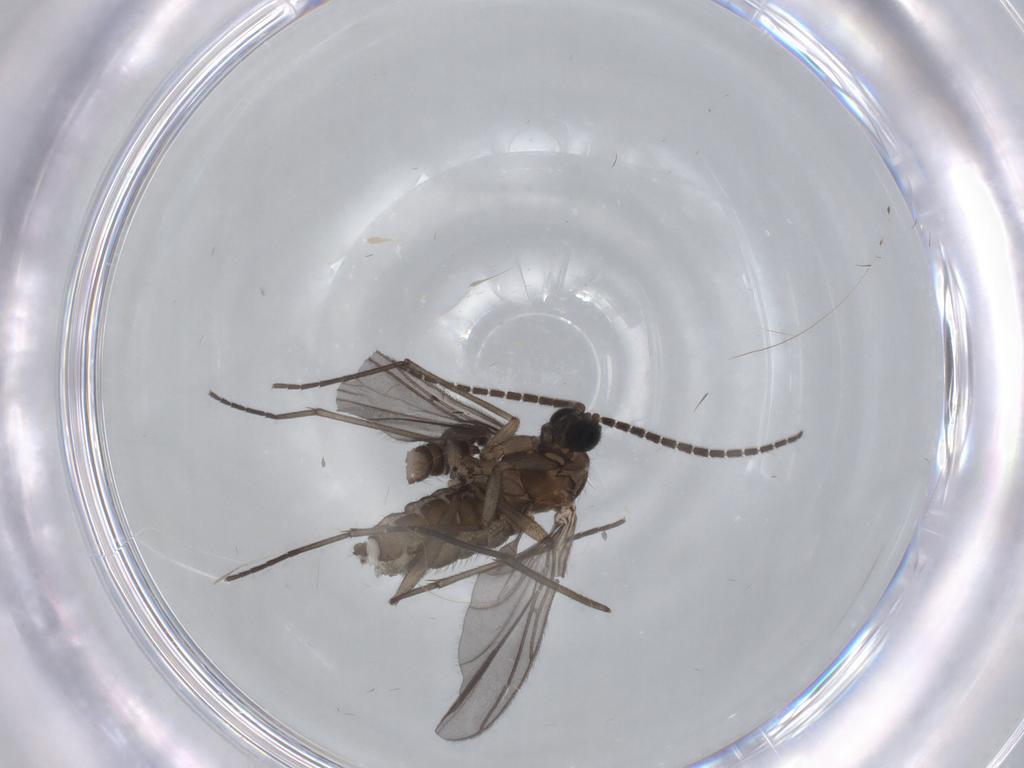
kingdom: Animalia
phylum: Arthropoda
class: Insecta
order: Diptera
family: Sciaridae
